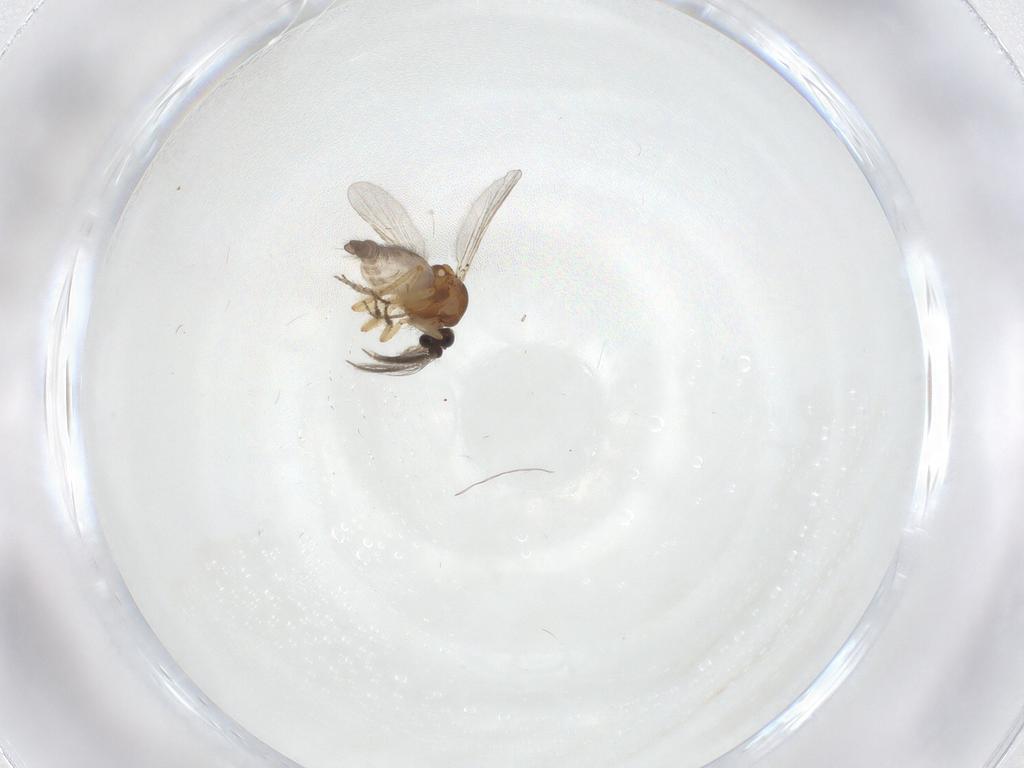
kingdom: Animalia
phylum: Arthropoda
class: Insecta
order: Diptera
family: Ceratopogonidae
